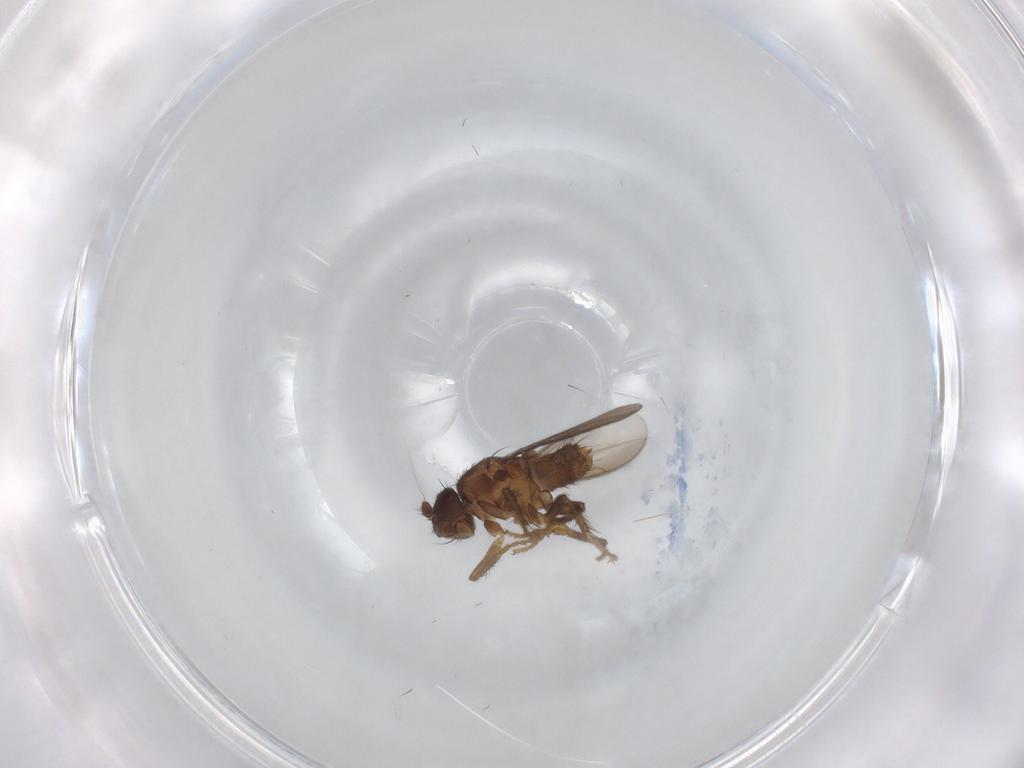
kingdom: Animalia
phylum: Arthropoda
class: Insecta
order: Diptera
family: Sphaeroceridae
